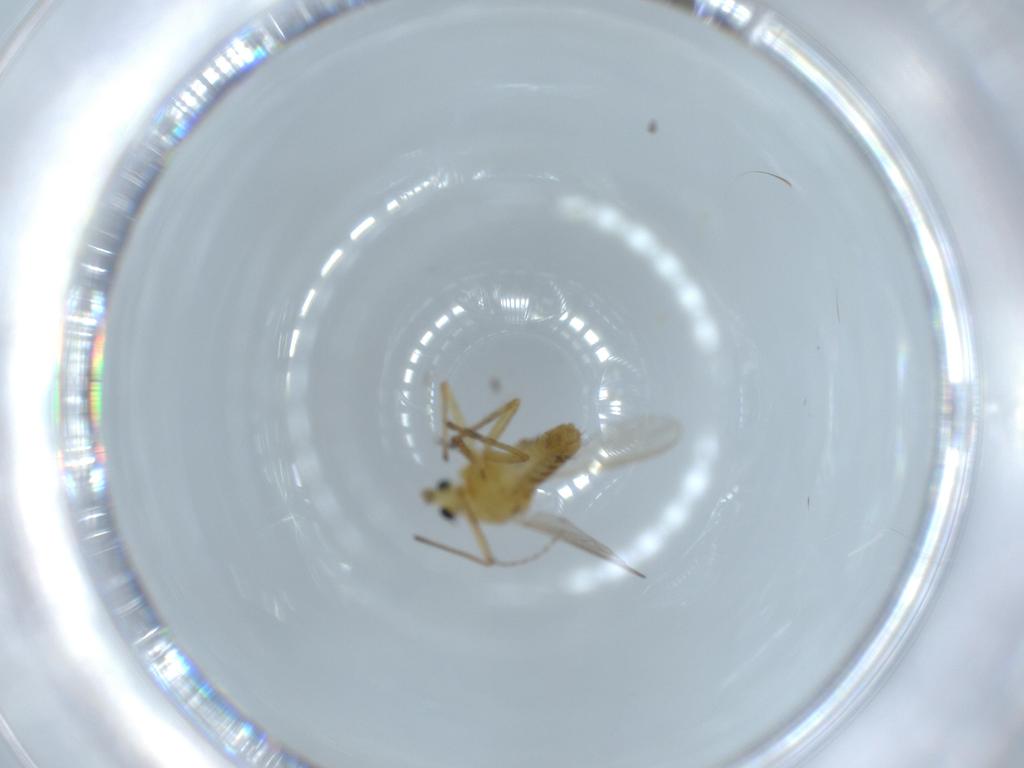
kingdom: Animalia
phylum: Arthropoda
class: Insecta
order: Diptera
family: Chironomidae
